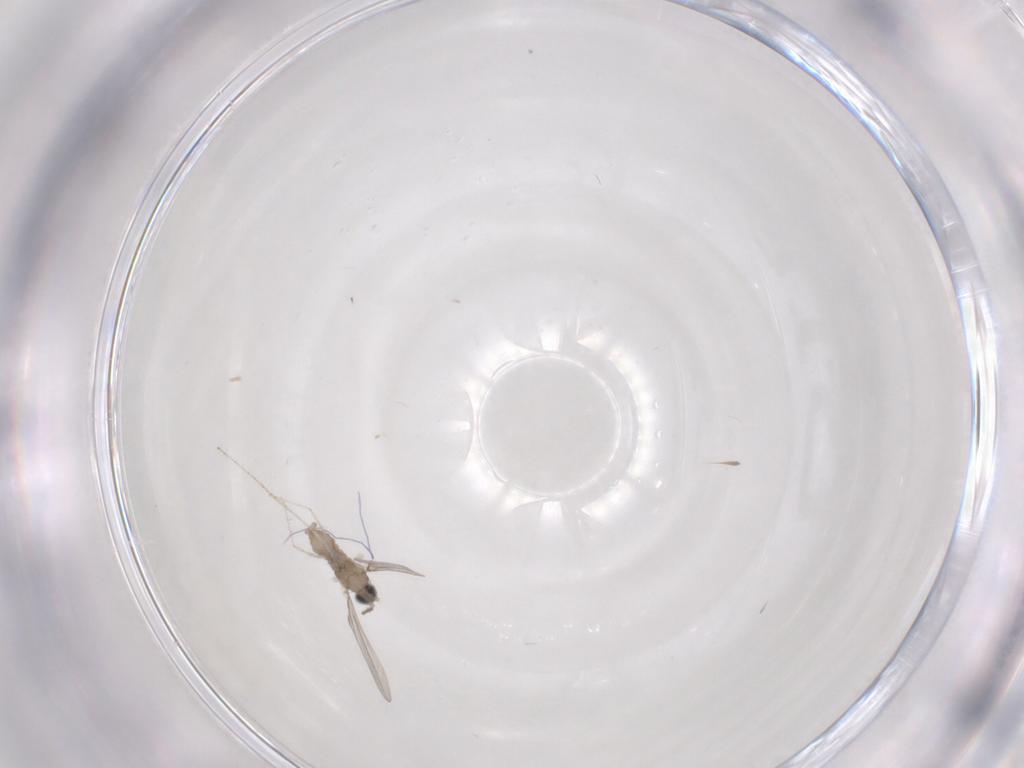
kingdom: Animalia
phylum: Arthropoda
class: Insecta
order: Diptera
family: Cecidomyiidae
